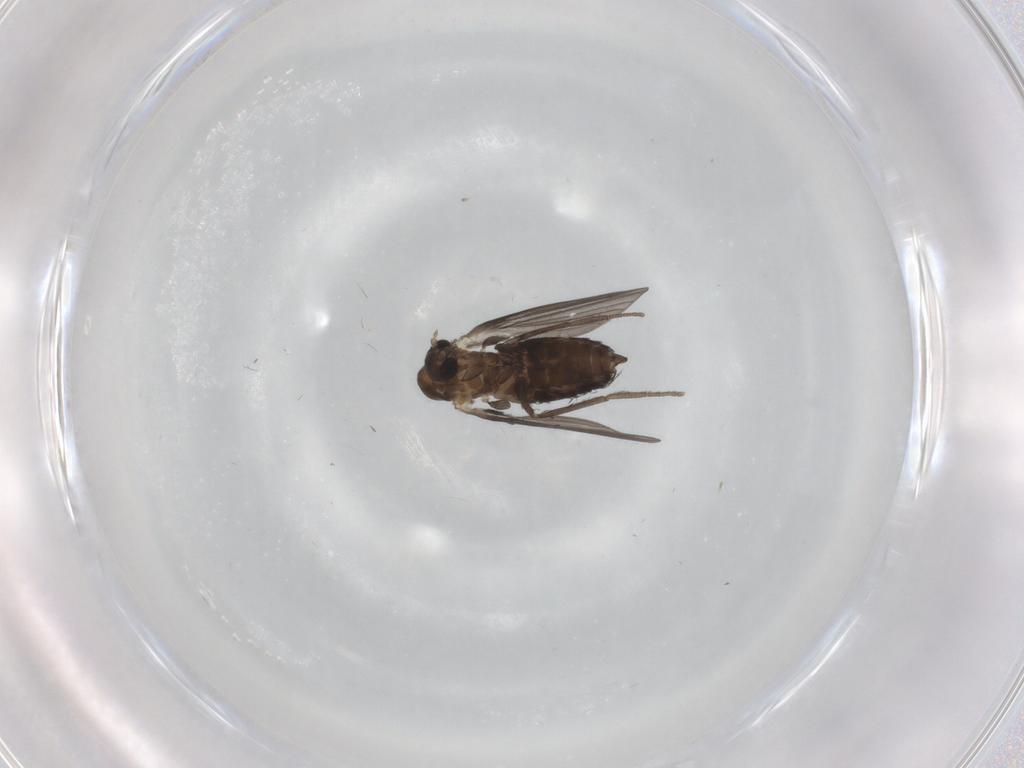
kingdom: Animalia
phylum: Arthropoda
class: Insecta
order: Diptera
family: Psychodidae
